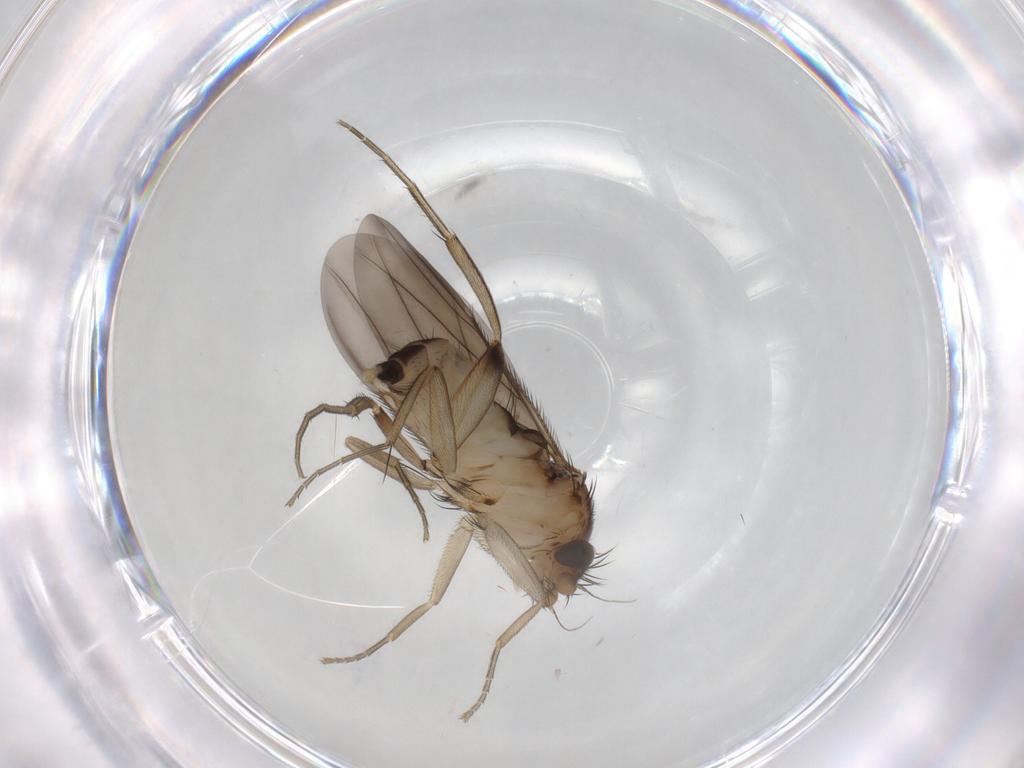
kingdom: Animalia
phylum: Arthropoda
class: Insecta
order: Diptera
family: Phoridae
